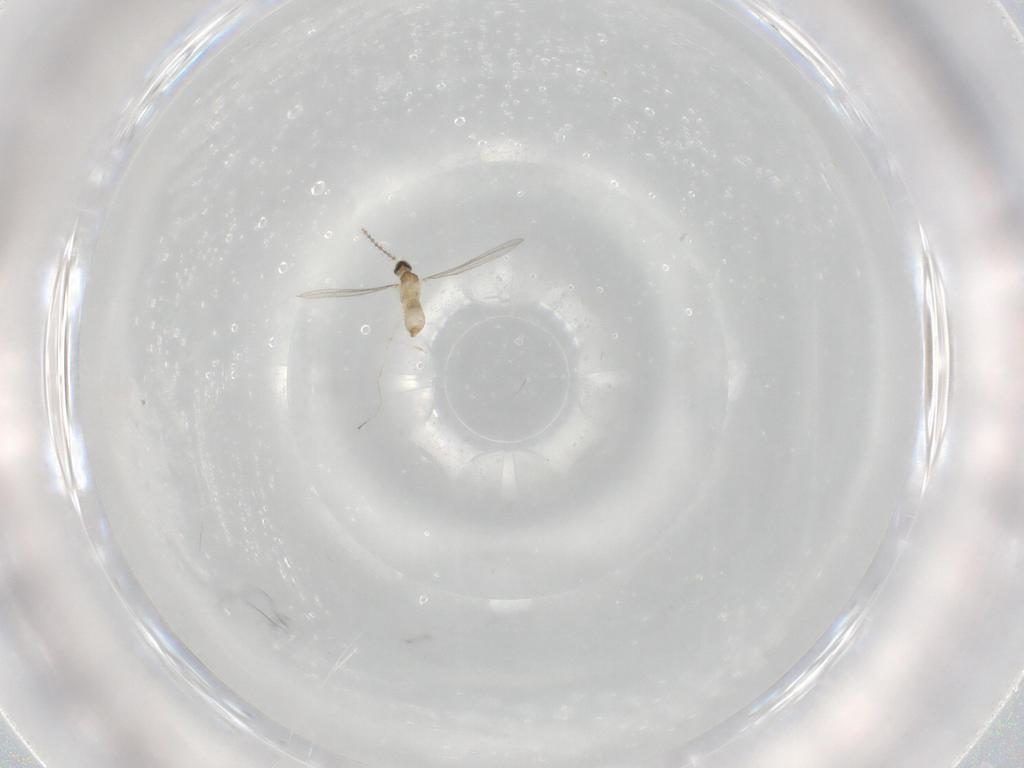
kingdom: Animalia
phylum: Arthropoda
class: Insecta
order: Diptera
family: Cecidomyiidae
